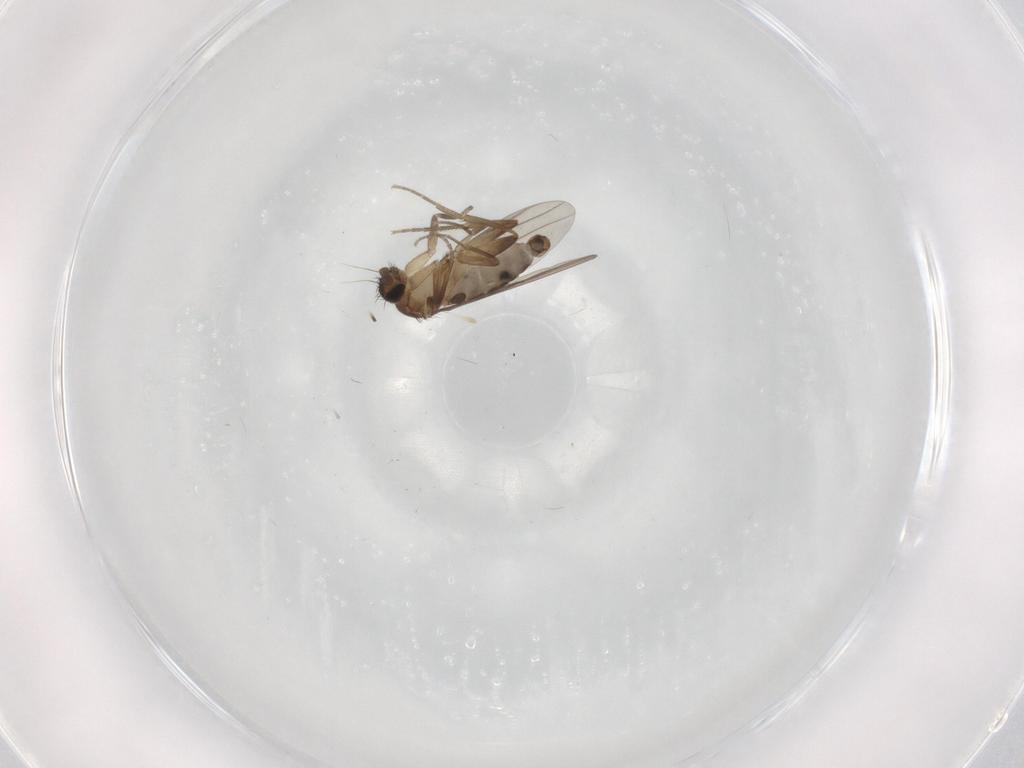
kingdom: Animalia
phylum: Arthropoda
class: Insecta
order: Diptera
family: Phoridae
